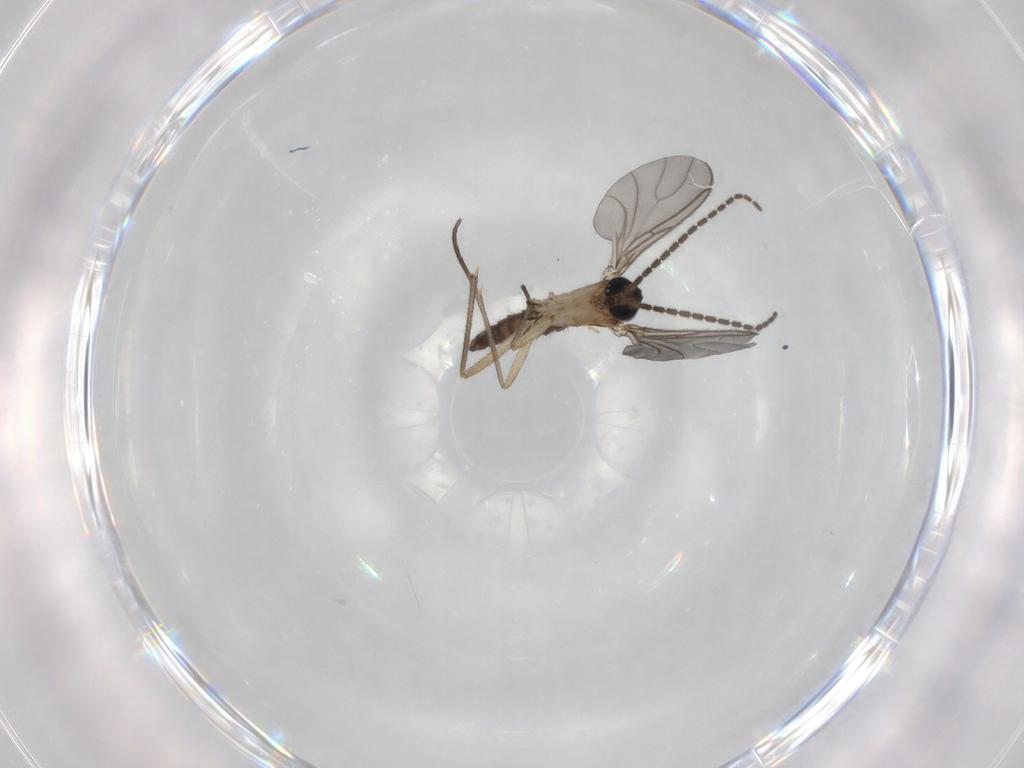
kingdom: Animalia
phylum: Arthropoda
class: Insecta
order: Diptera
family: Sciaridae
